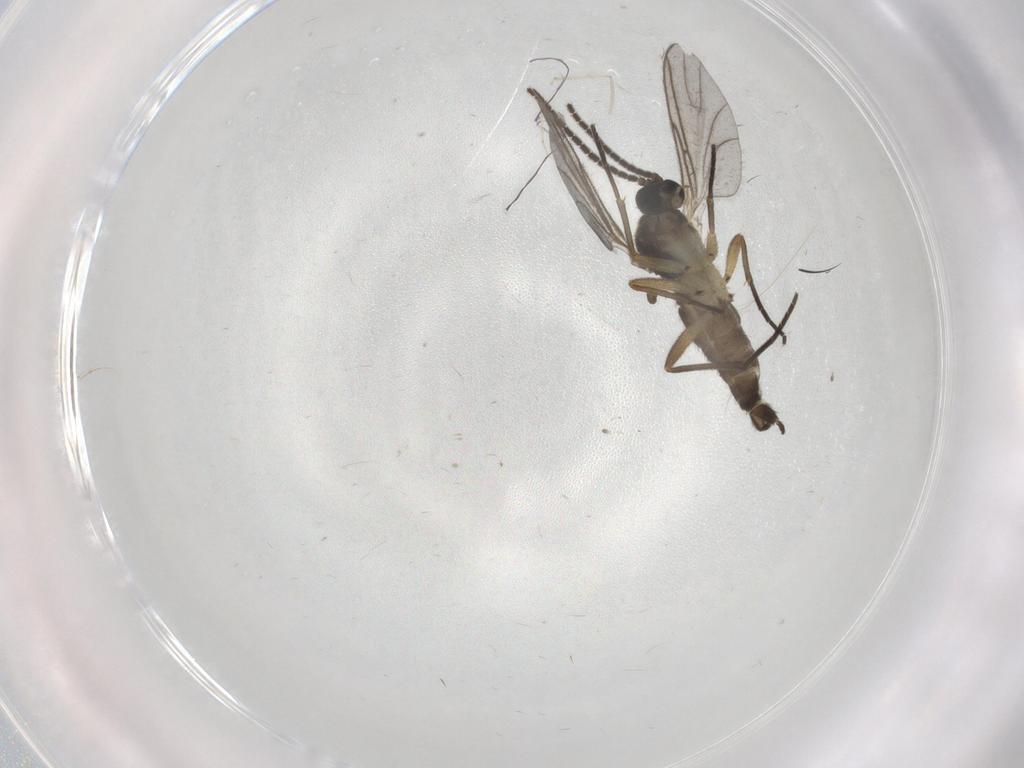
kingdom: Animalia
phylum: Arthropoda
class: Insecta
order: Diptera
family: Sciaridae
